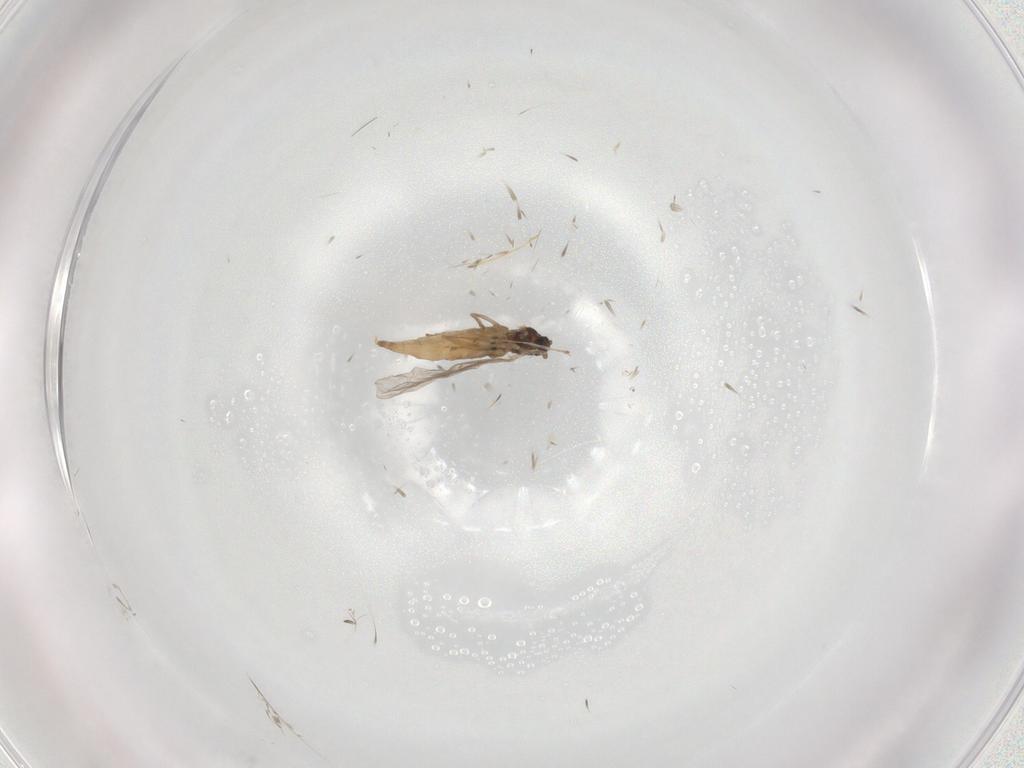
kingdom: Animalia
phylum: Arthropoda
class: Insecta
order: Diptera
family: Cecidomyiidae
